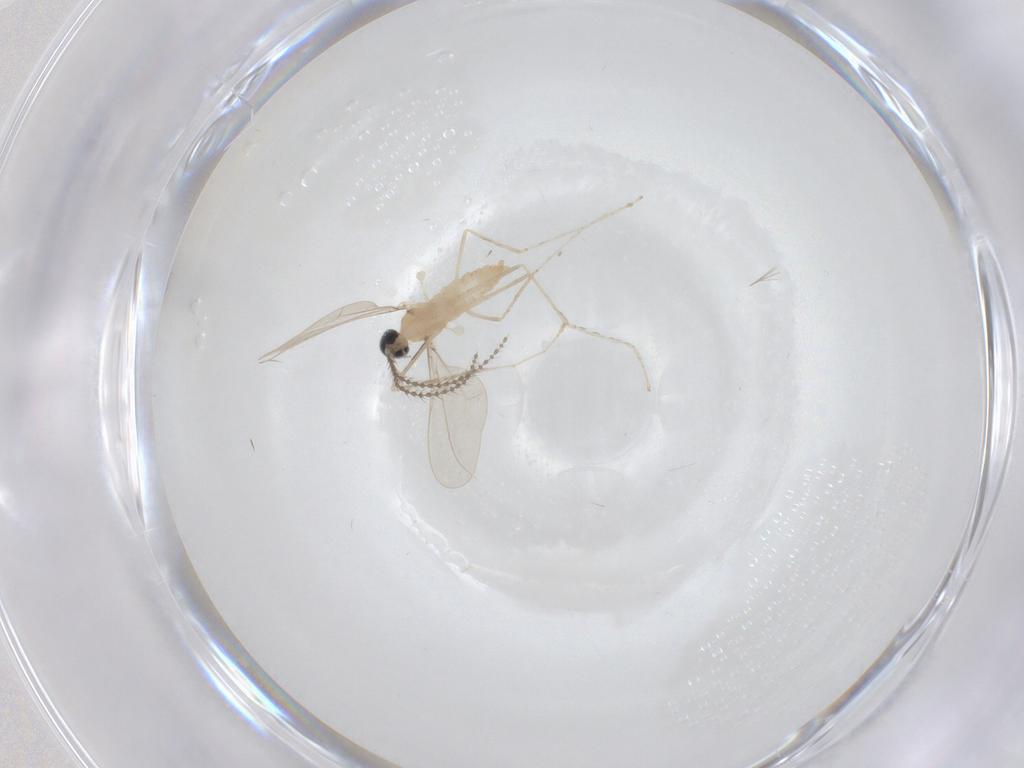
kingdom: Animalia
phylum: Arthropoda
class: Insecta
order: Diptera
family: Cecidomyiidae
